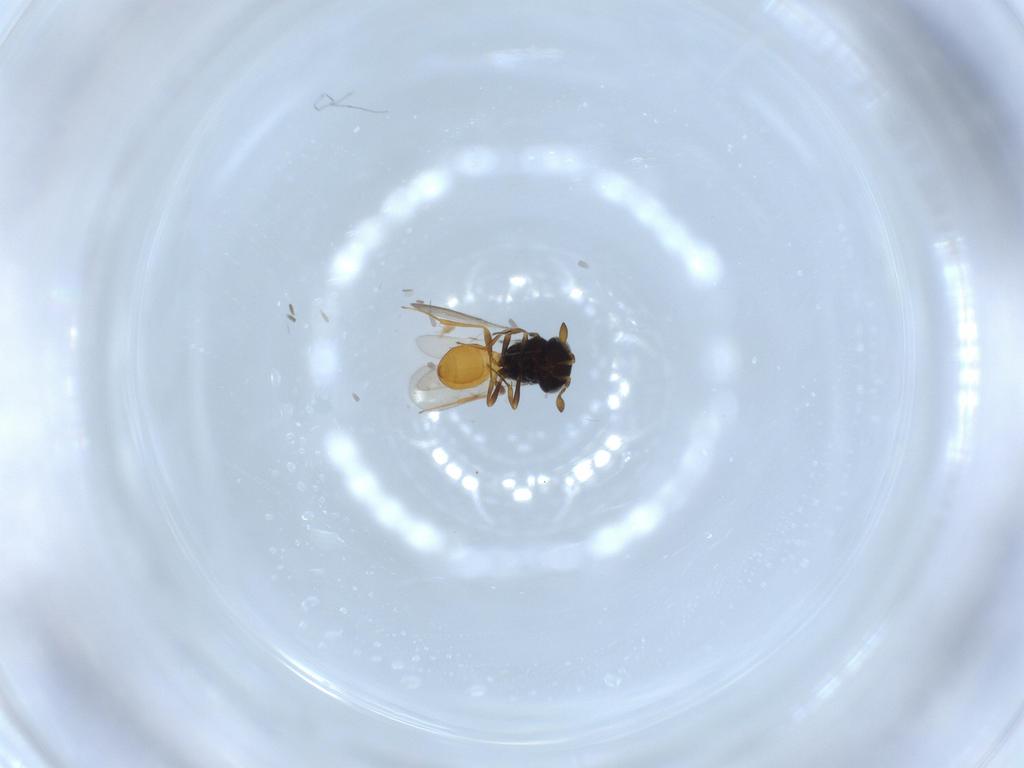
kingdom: Animalia
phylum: Arthropoda
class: Insecta
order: Hymenoptera
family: Scelionidae
